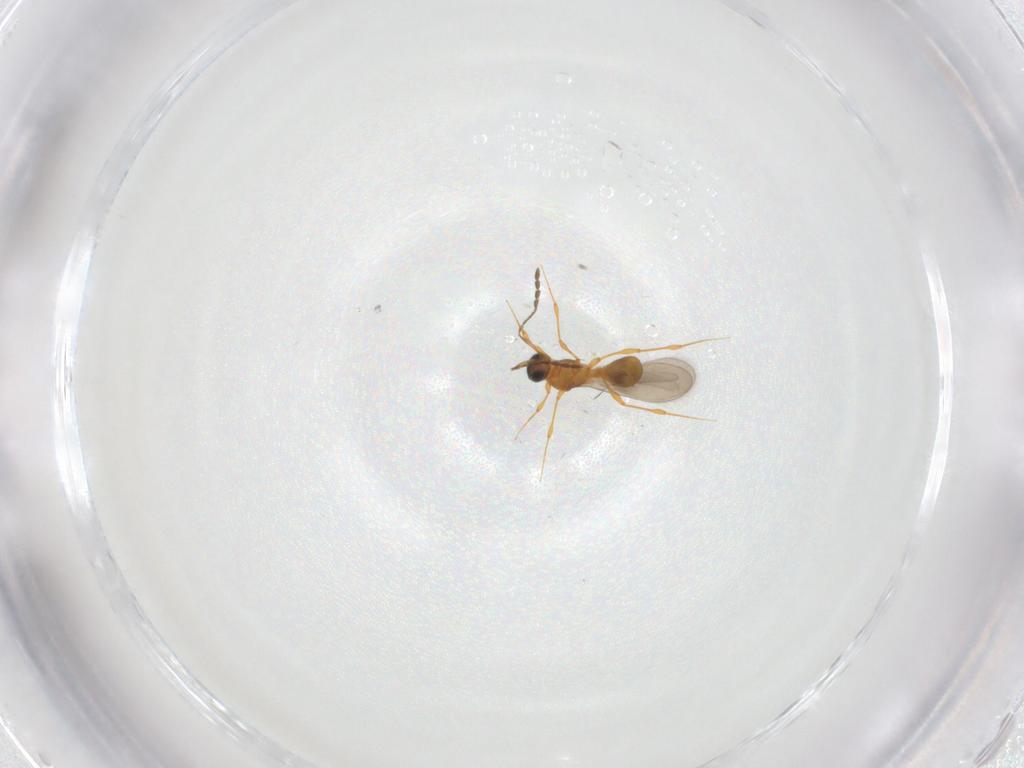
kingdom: Animalia
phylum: Arthropoda
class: Insecta
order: Hymenoptera
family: Platygastridae
